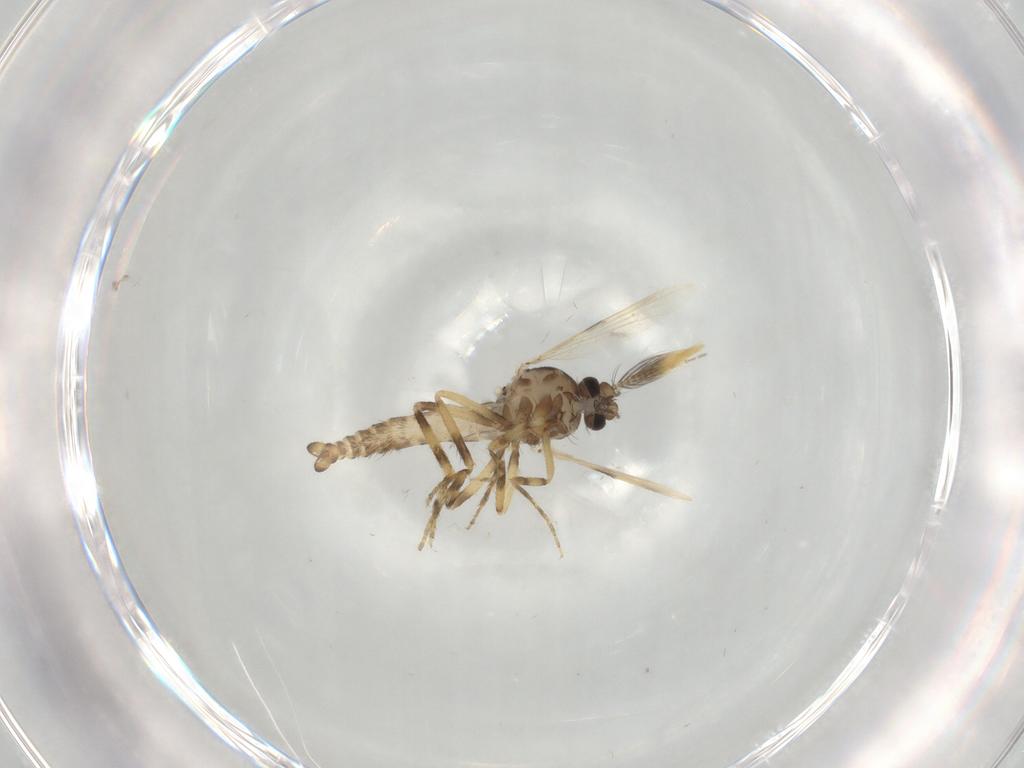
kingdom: Animalia
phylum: Arthropoda
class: Insecta
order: Diptera
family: Ceratopogonidae
